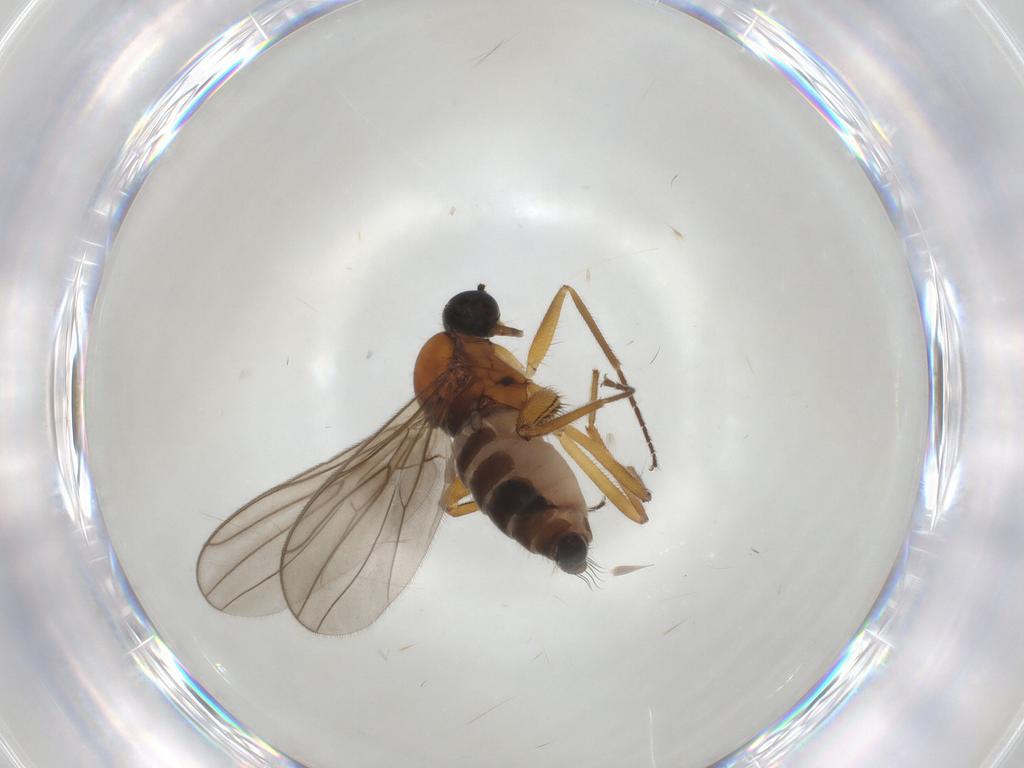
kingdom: Animalia
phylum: Arthropoda
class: Insecta
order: Diptera
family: Hybotidae
